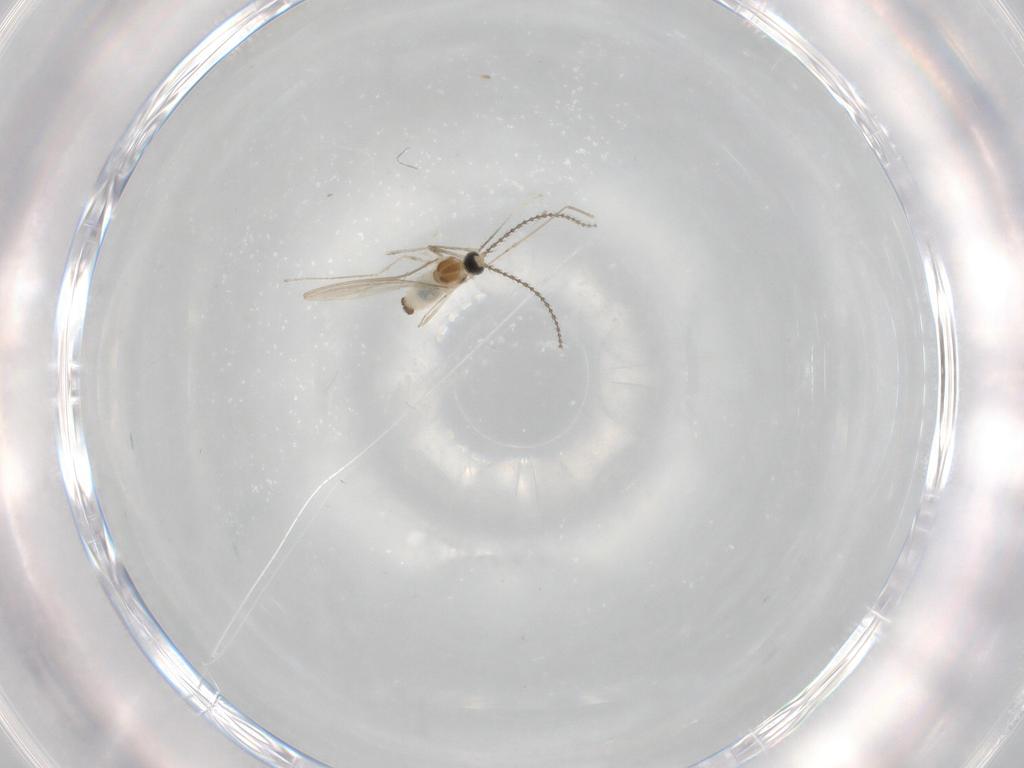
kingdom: Animalia
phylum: Arthropoda
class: Insecta
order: Diptera
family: Cecidomyiidae
